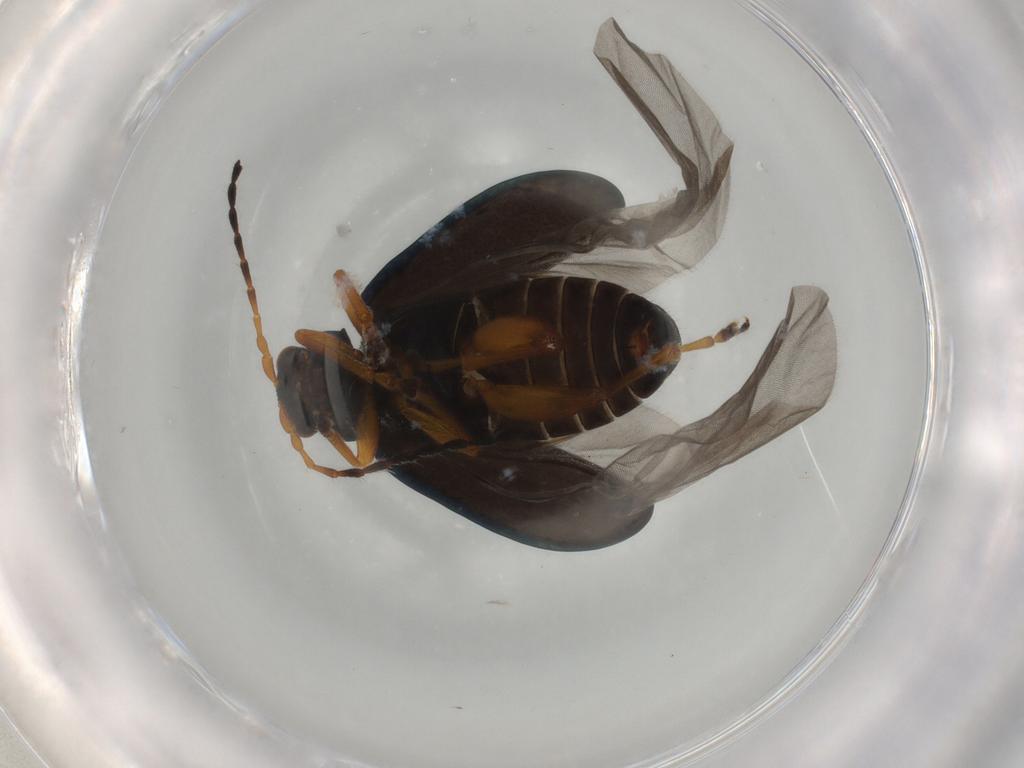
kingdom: Animalia
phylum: Arthropoda
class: Insecta
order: Coleoptera
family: Chrysomelidae
